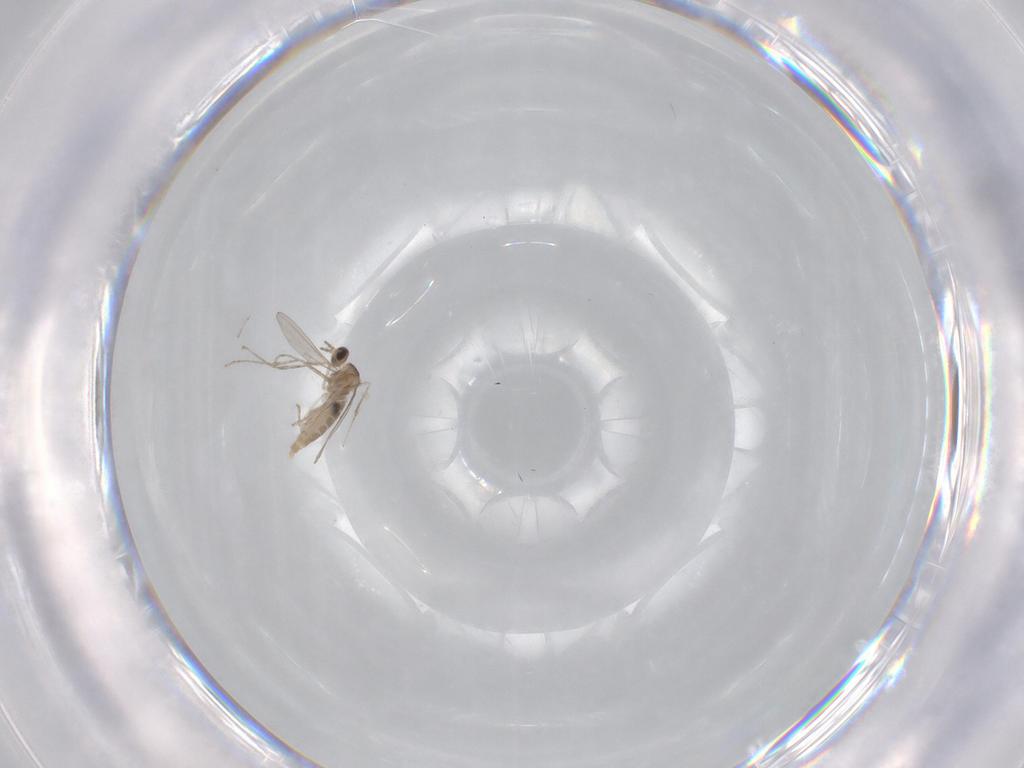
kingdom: Animalia
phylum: Arthropoda
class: Insecta
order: Diptera
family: Chironomidae
